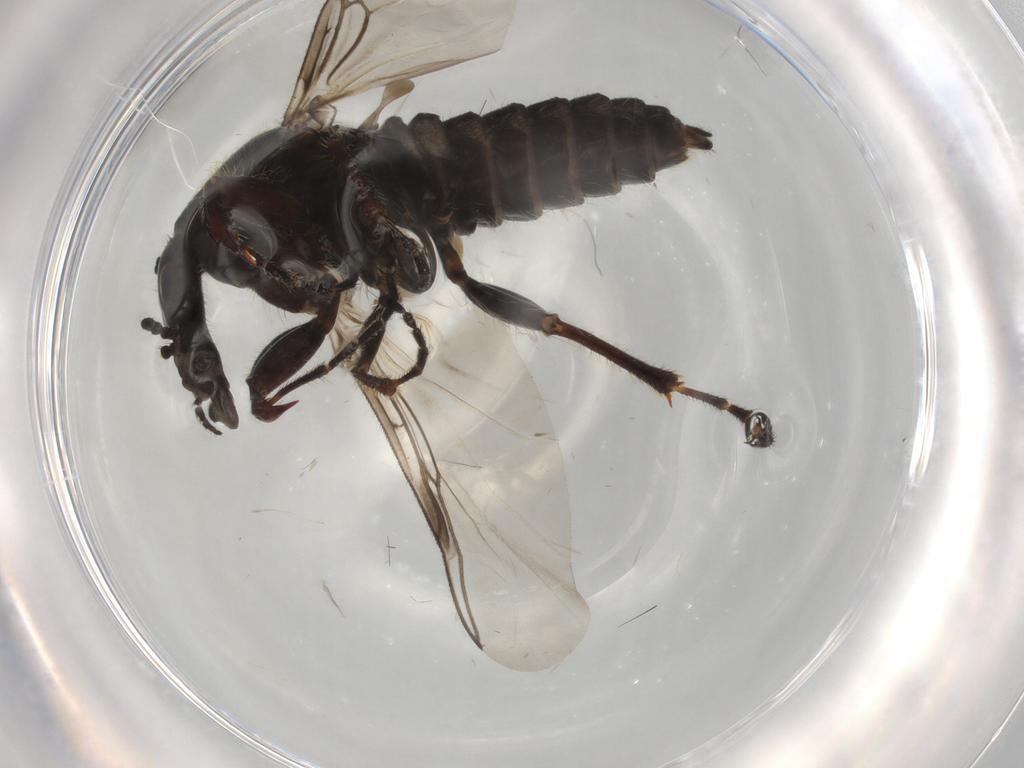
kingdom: Animalia
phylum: Arthropoda
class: Insecta
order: Diptera
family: Bibionidae
